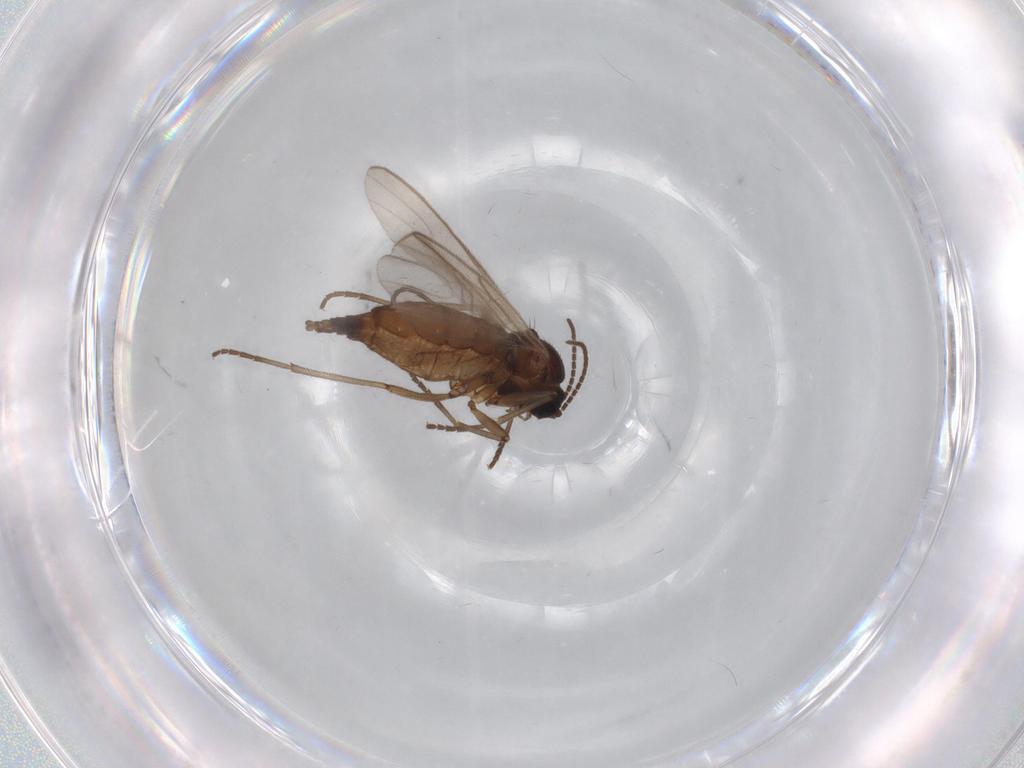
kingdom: Animalia
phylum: Arthropoda
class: Insecta
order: Diptera
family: Sciaridae
